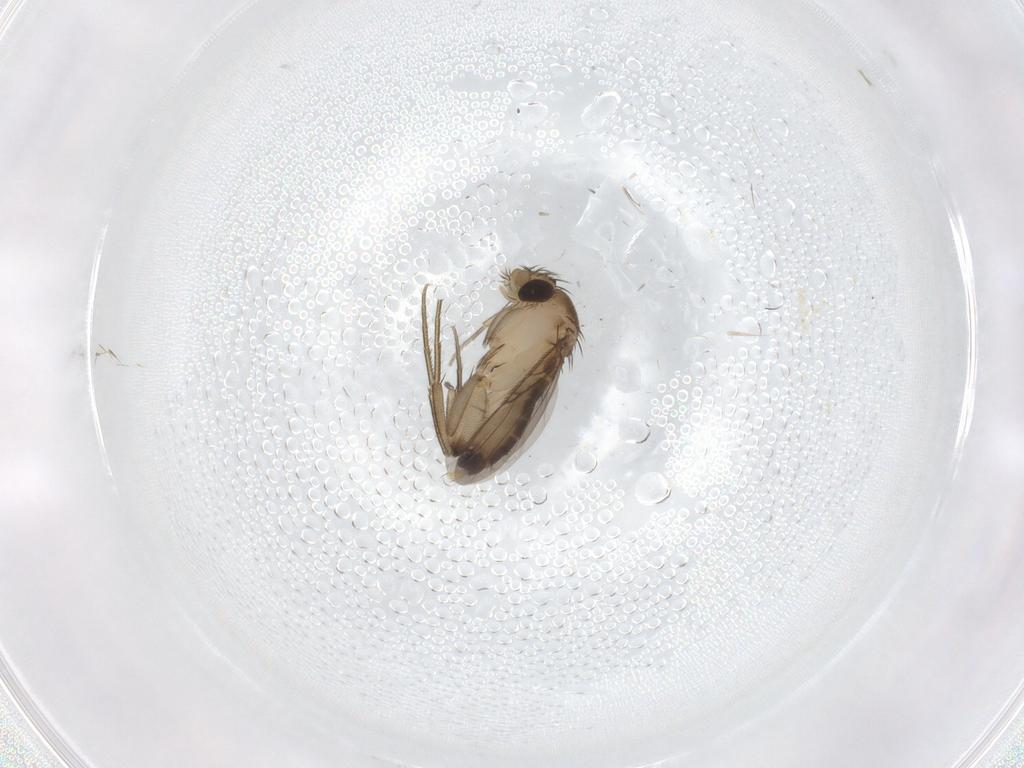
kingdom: Animalia
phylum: Arthropoda
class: Insecta
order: Diptera
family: Phoridae
